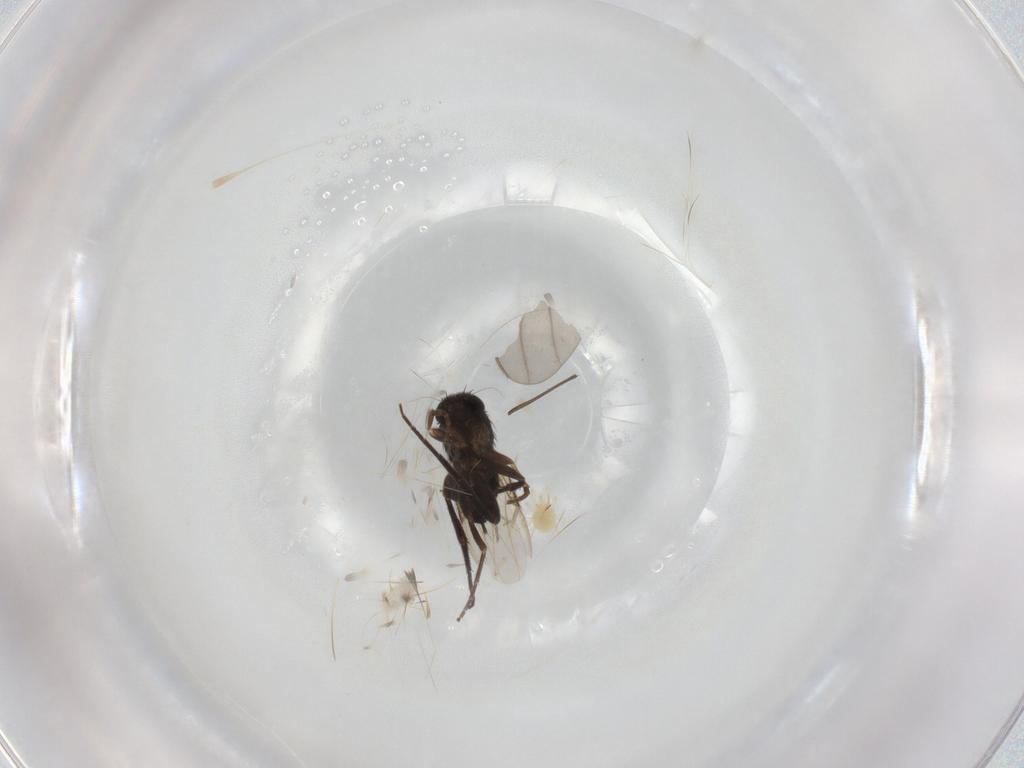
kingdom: Animalia
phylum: Arthropoda
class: Insecta
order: Diptera
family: Phoridae
